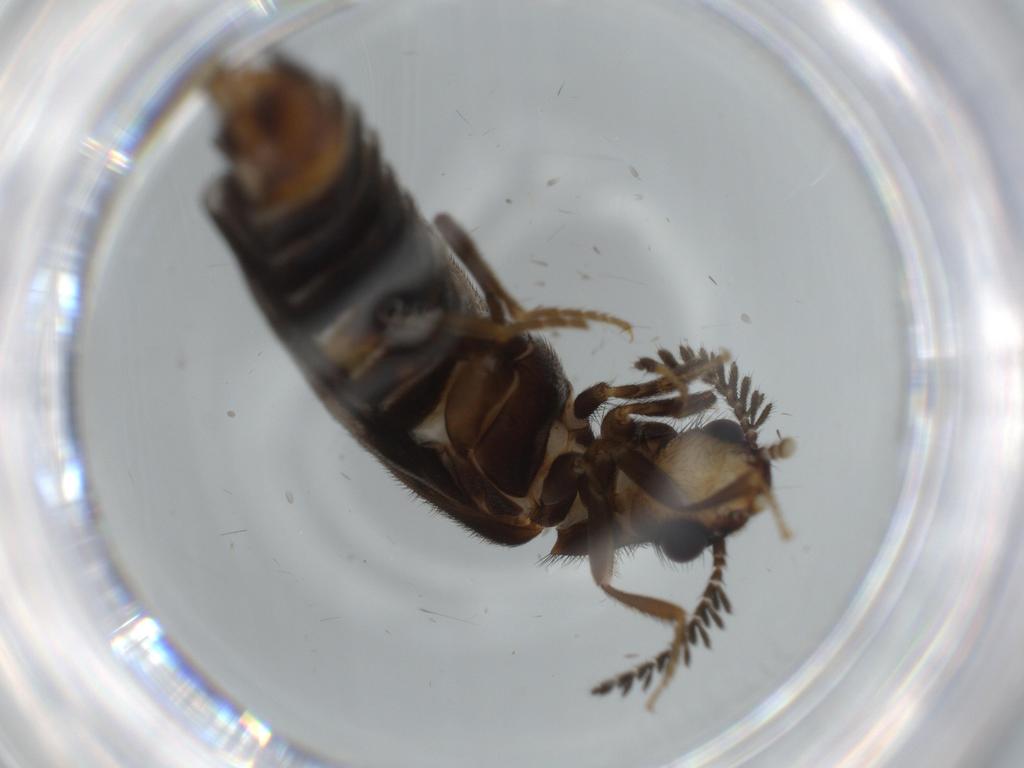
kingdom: Animalia
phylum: Arthropoda
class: Insecta
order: Coleoptera
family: Phengodidae
